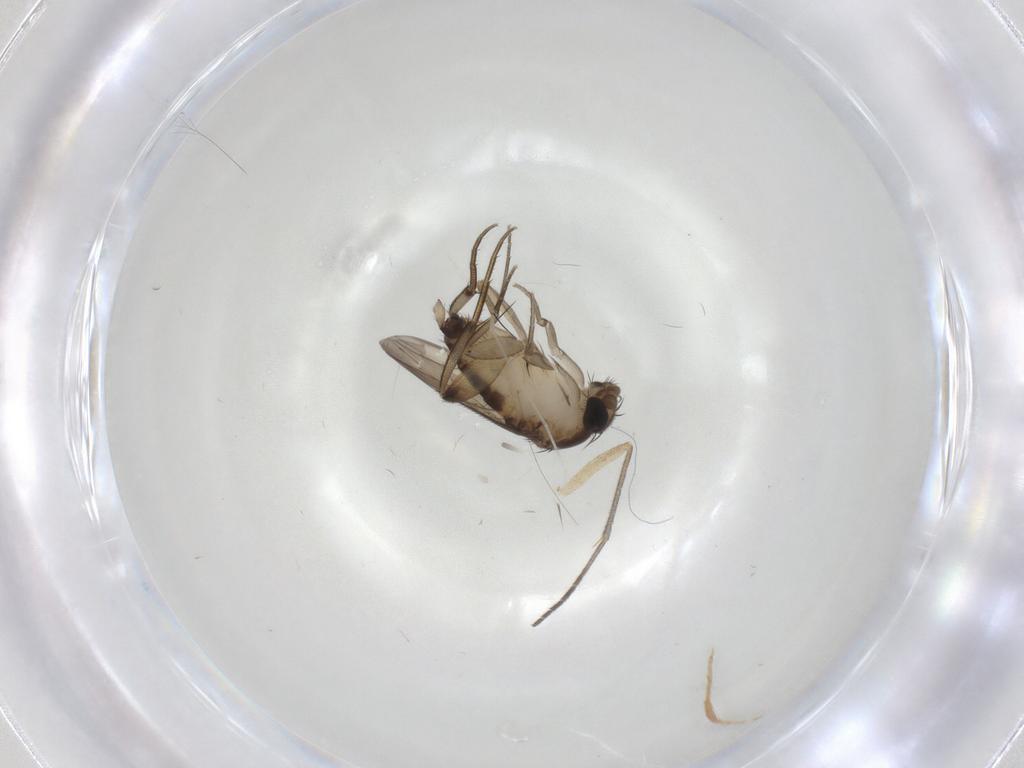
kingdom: Animalia
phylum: Arthropoda
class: Insecta
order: Diptera
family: Phoridae
